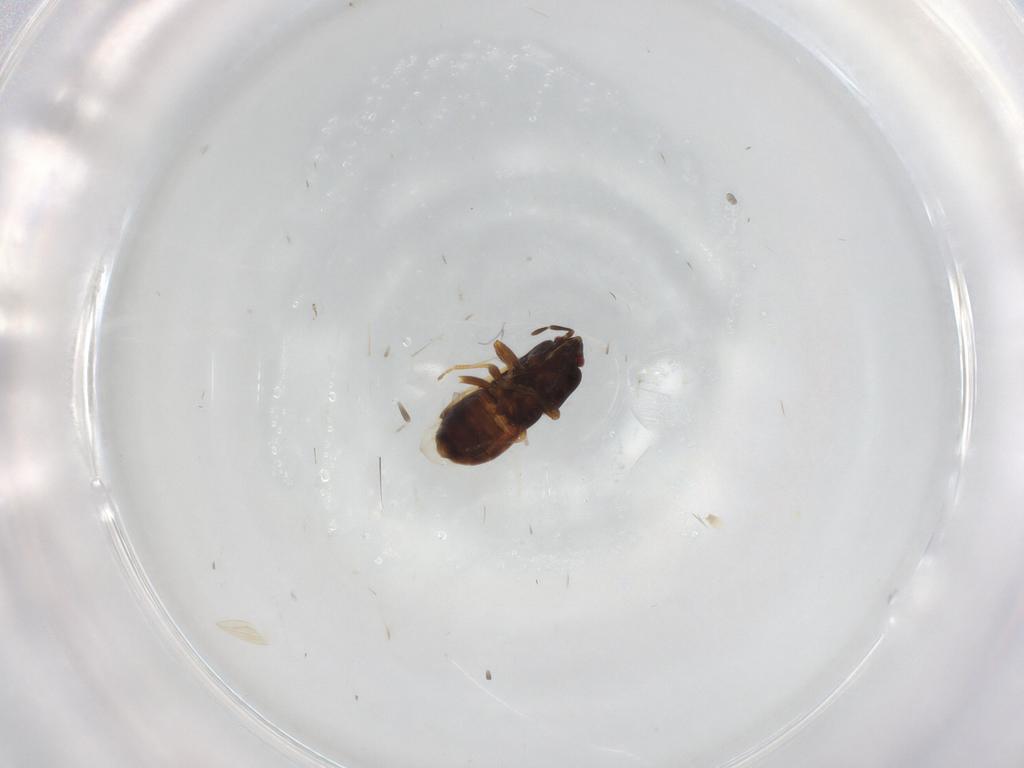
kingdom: Animalia
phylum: Arthropoda
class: Insecta
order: Hemiptera
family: Rhyparochromidae
